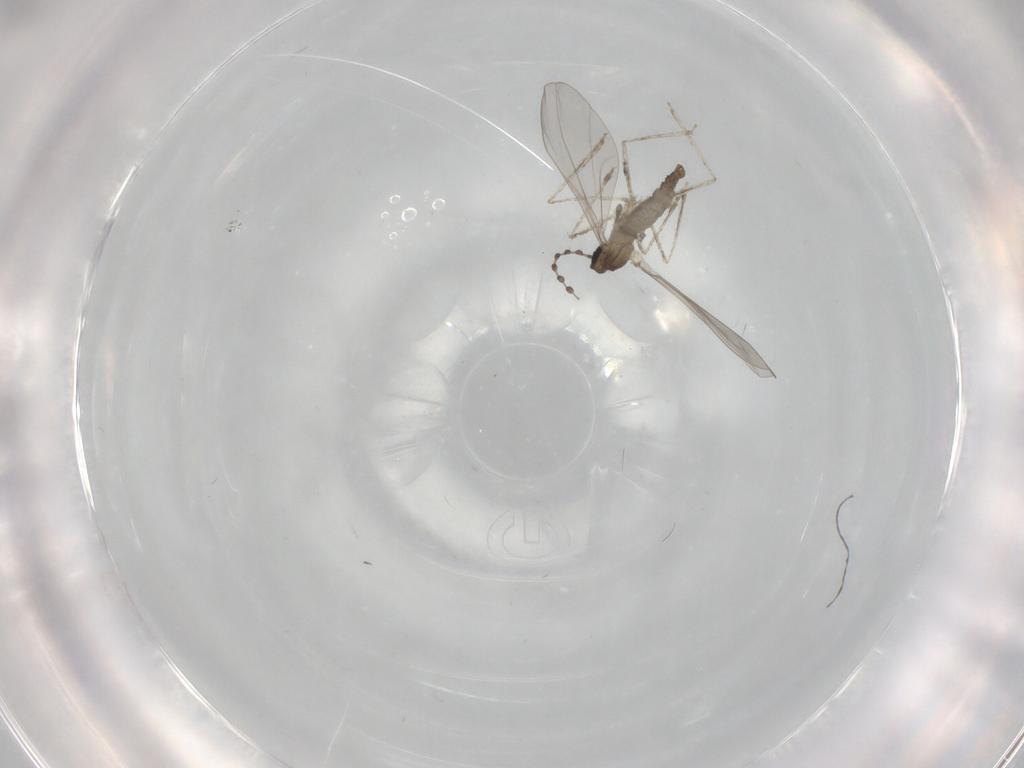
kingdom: Animalia
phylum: Arthropoda
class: Insecta
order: Diptera
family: Cecidomyiidae
